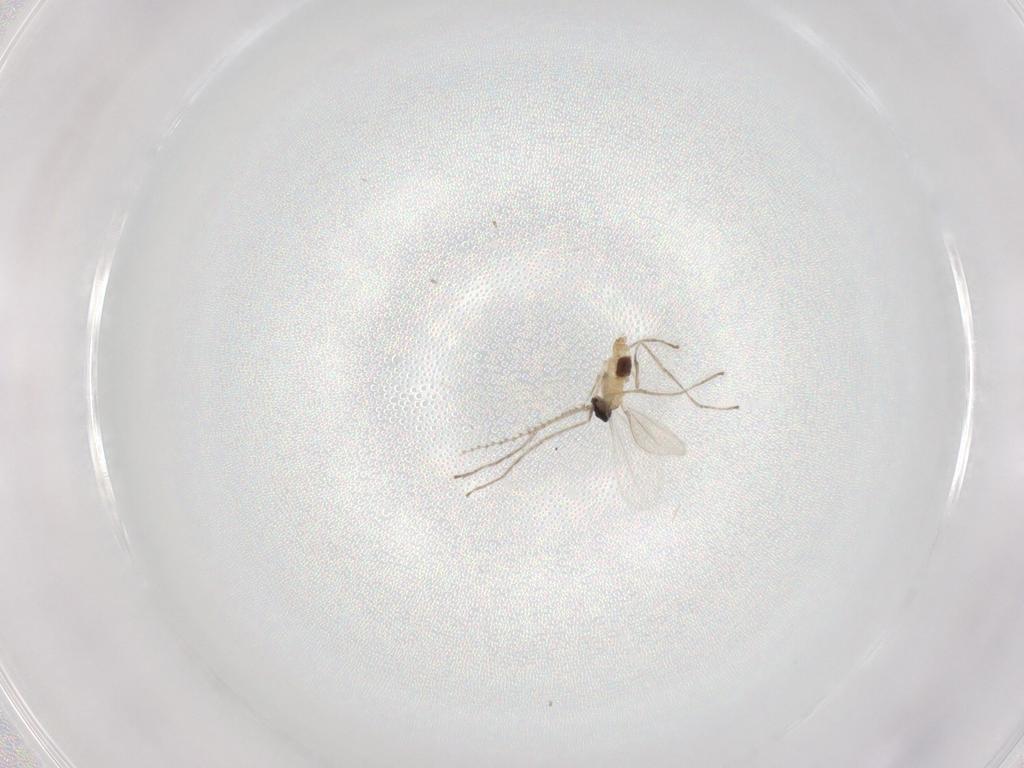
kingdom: Animalia
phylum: Arthropoda
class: Insecta
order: Diptera
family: Cecidomyiidae
